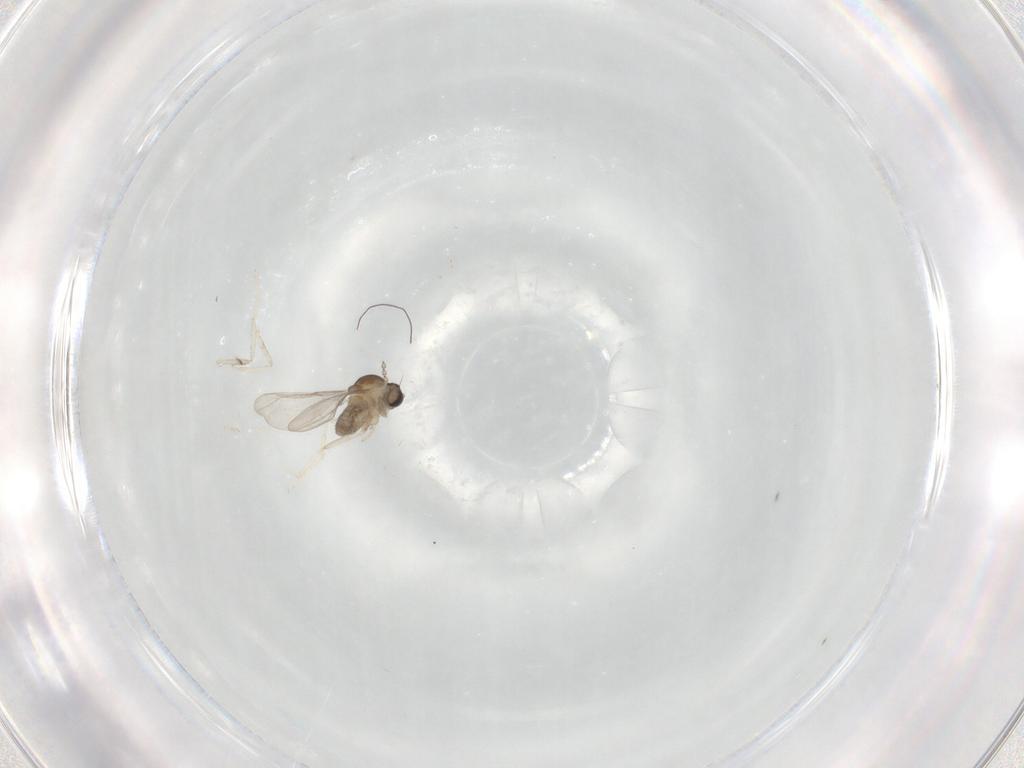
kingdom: Animalia
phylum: Arthropoda
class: Insecta
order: Diptera
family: Cecidomyiidae
